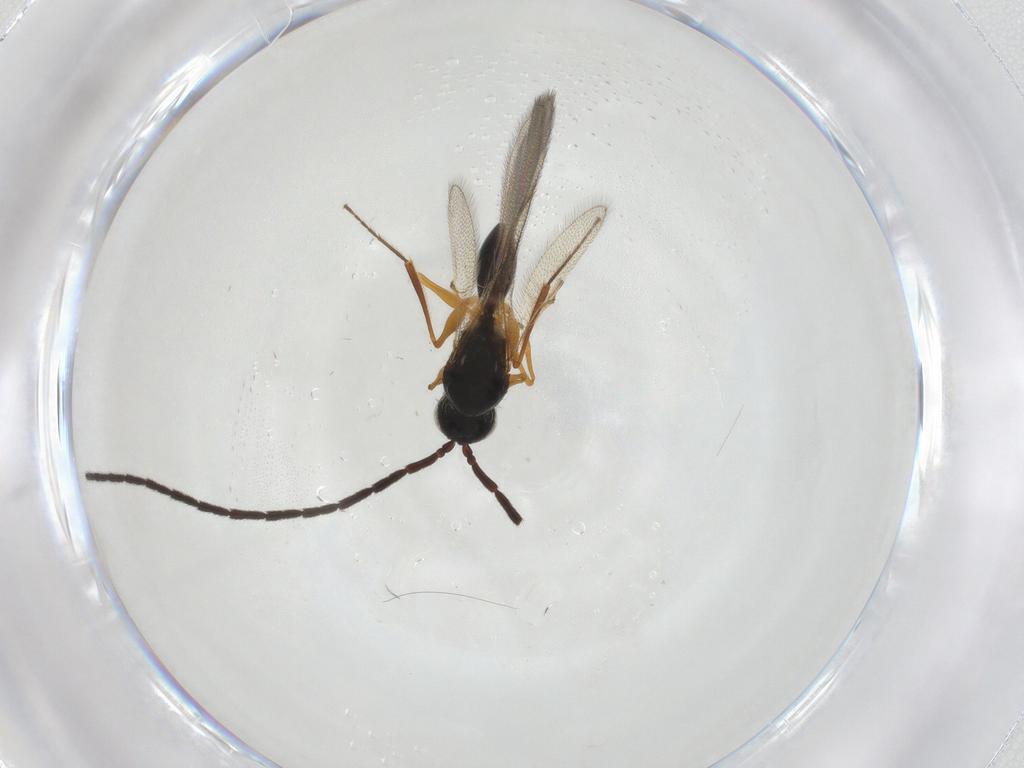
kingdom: Animalia
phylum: Arthropoda
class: Insecta
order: Hymenoptera
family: Figitidae
